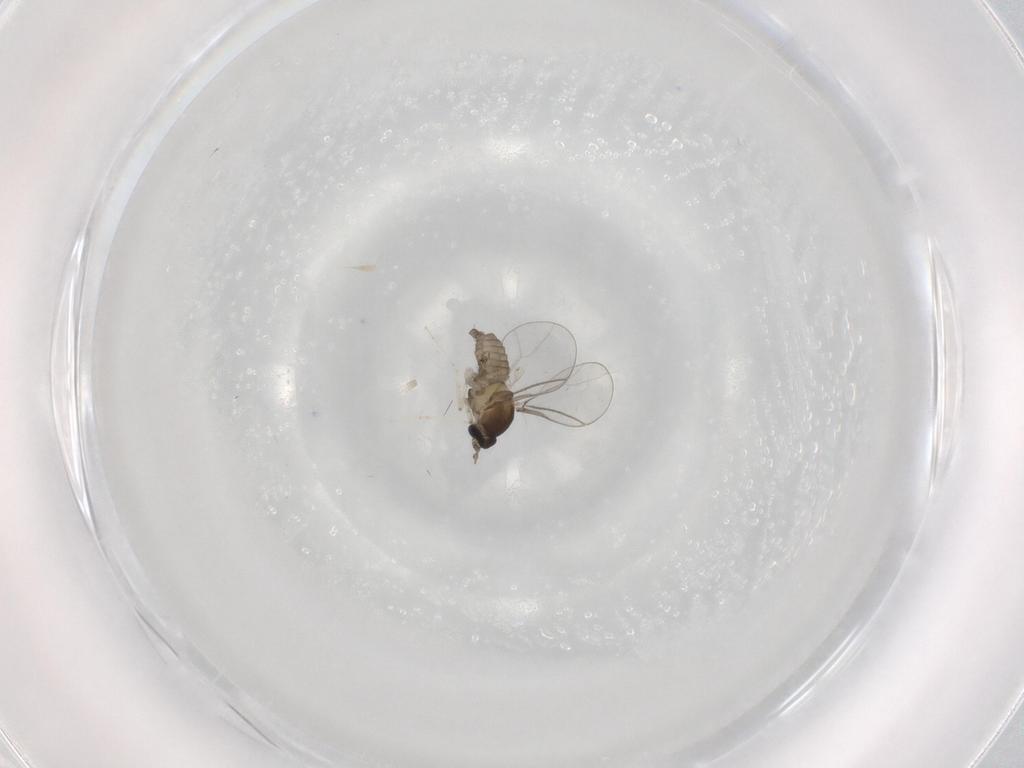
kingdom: Animalia
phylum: Arthropoda
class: Insecta
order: Diptera
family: Cecidomyiidae
